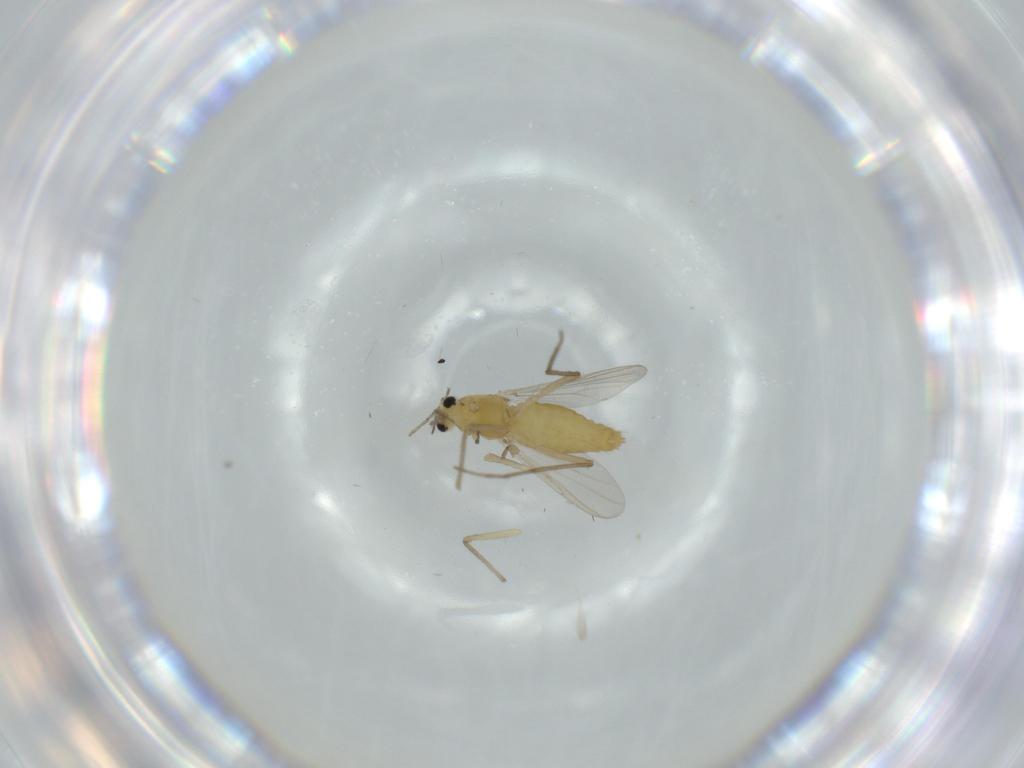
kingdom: Animalia
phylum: Arthropoda
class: Insecta
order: Diptera
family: Chironomidae
